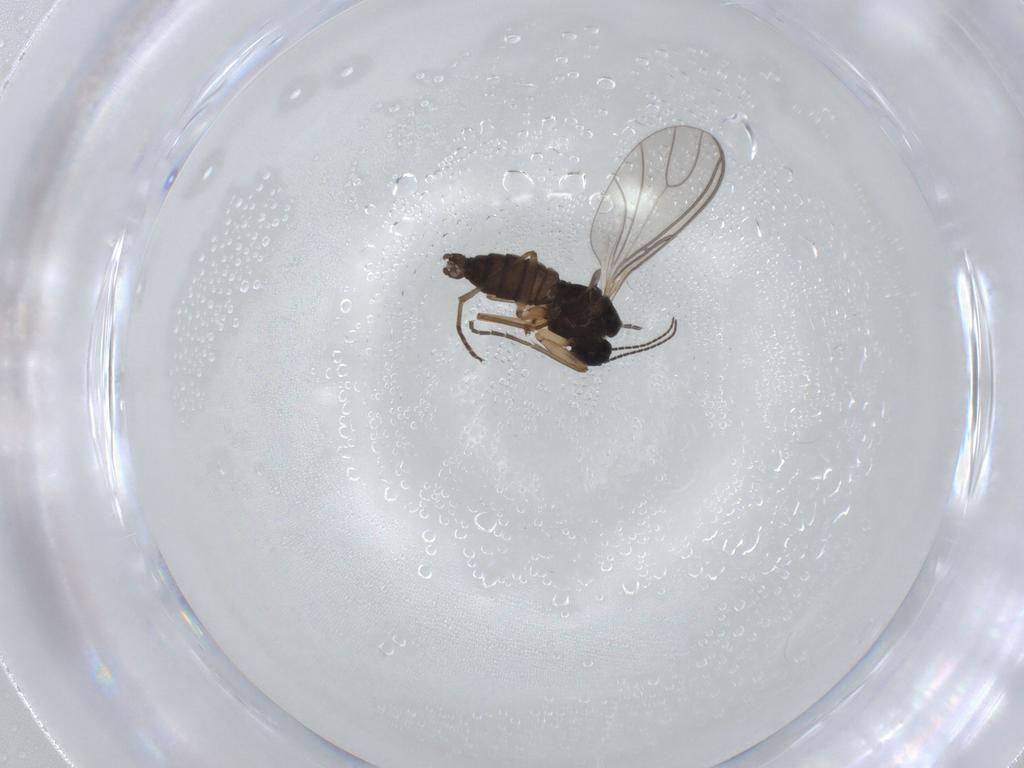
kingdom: Animalia
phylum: Arthropoda
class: Insecta
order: Diptera
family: Sciaridae
